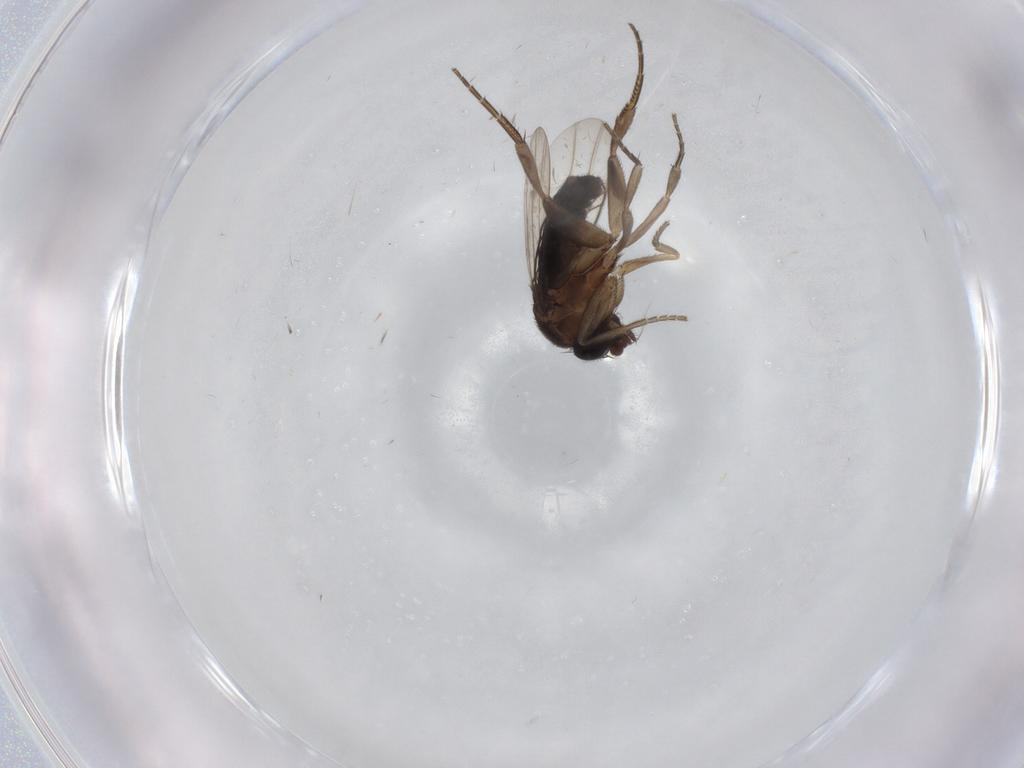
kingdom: Animalia
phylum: Arthropoda
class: Insecta
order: Diptera
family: Phoridae
